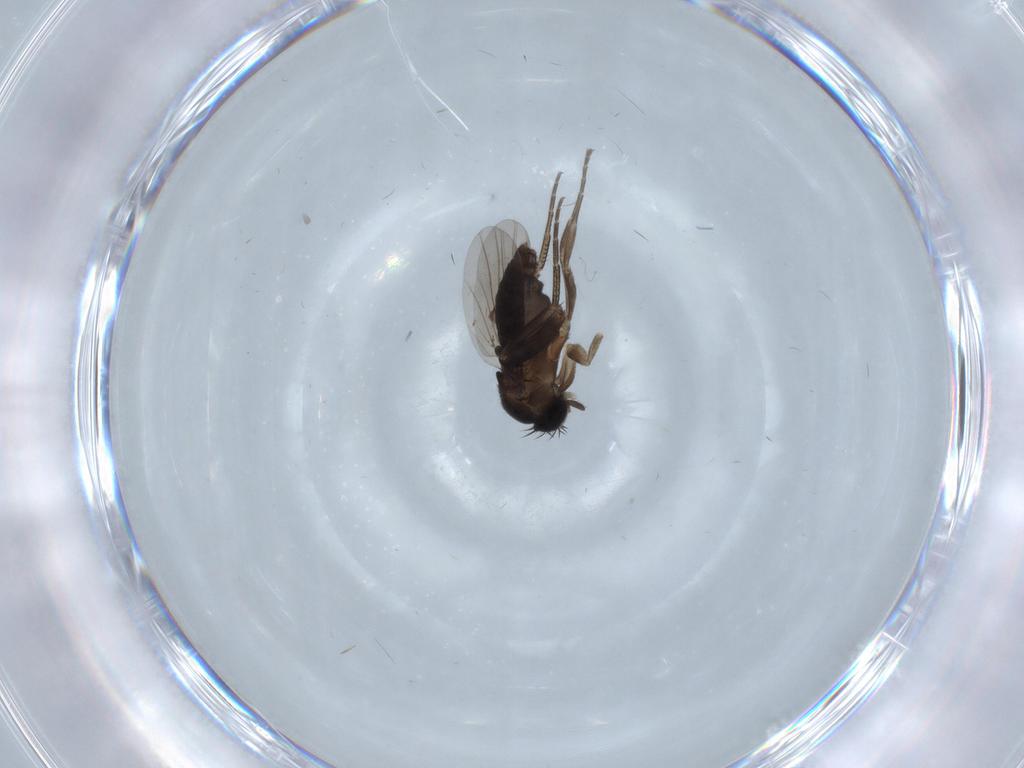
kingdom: Animalia
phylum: Arthropoda
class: Insecta
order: Diptera
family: Phoridae
